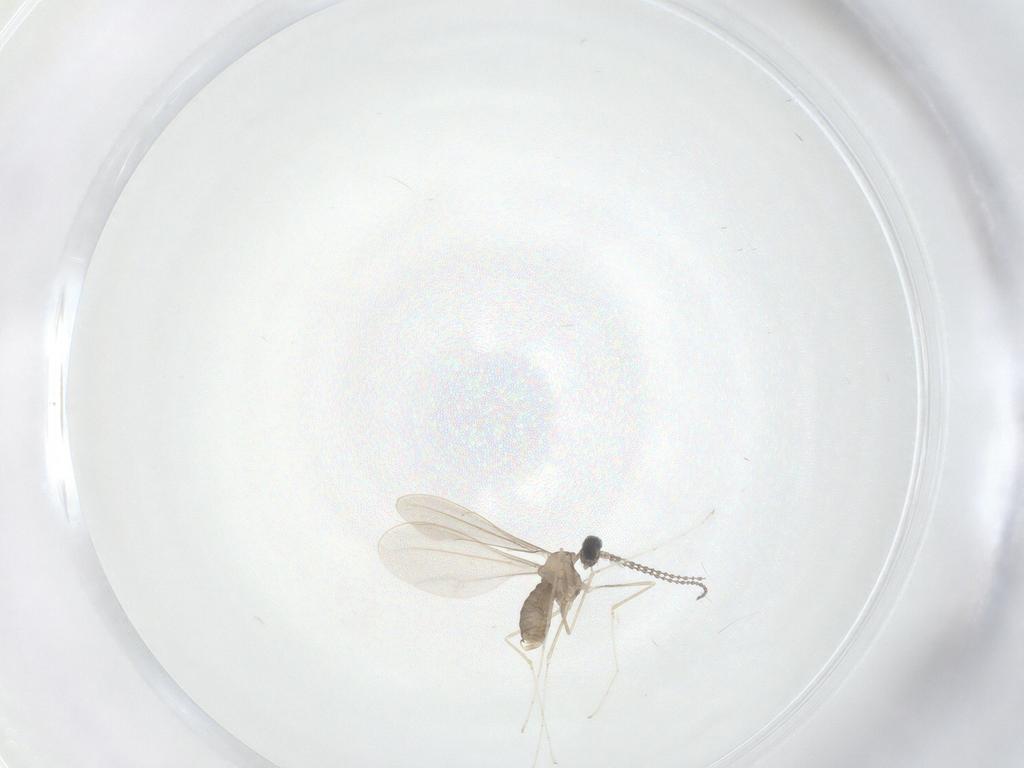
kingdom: Animalia
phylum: Arthropoda
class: Insecta
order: Diptera
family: Cecidomyiidae
